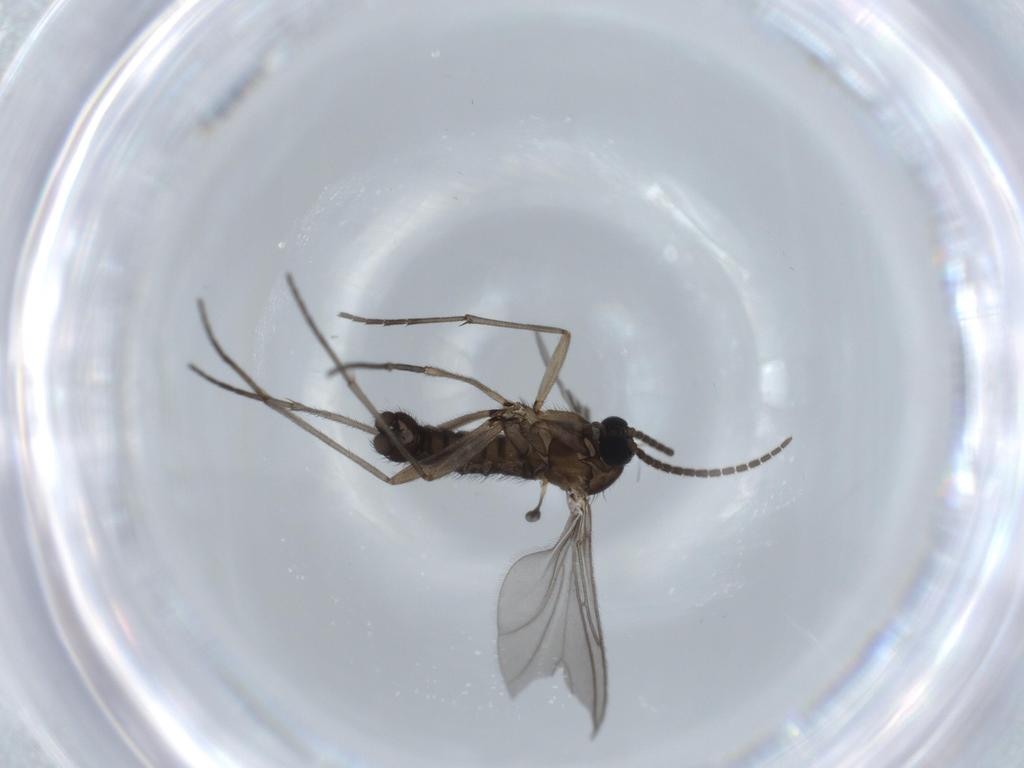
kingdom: Animalia
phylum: Arthropoda
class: Insecta
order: Diptera
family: Sciaridae
